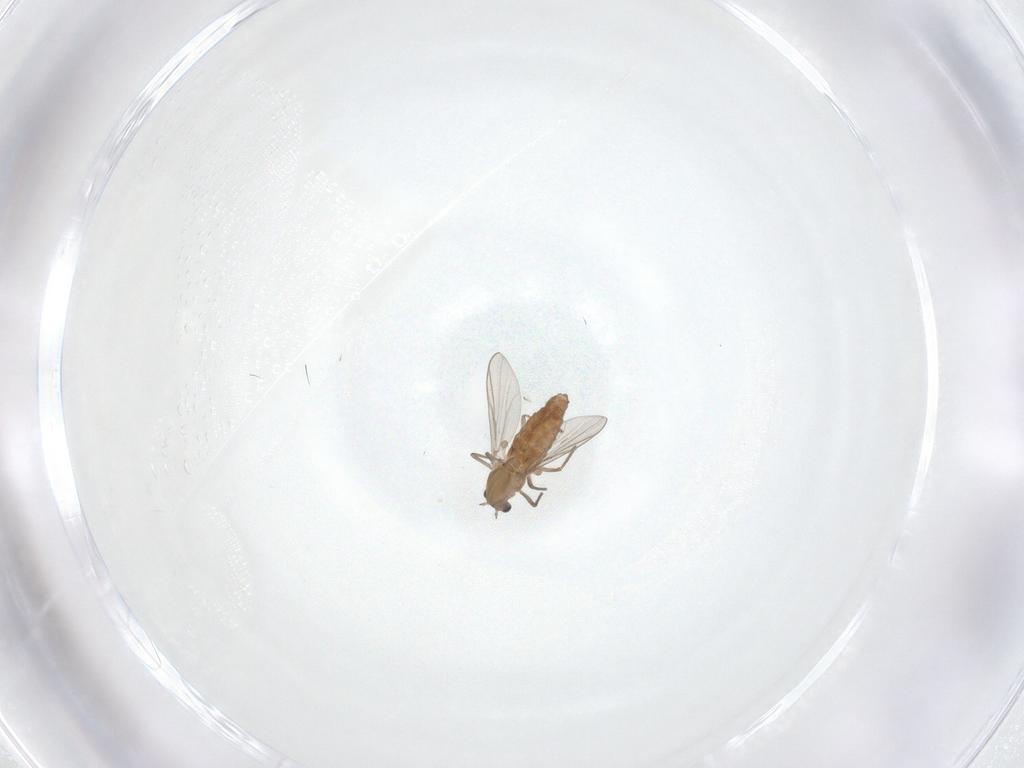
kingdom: Animalia
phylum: Arthropoda
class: Insecta
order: Diptera
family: Chironomidae
